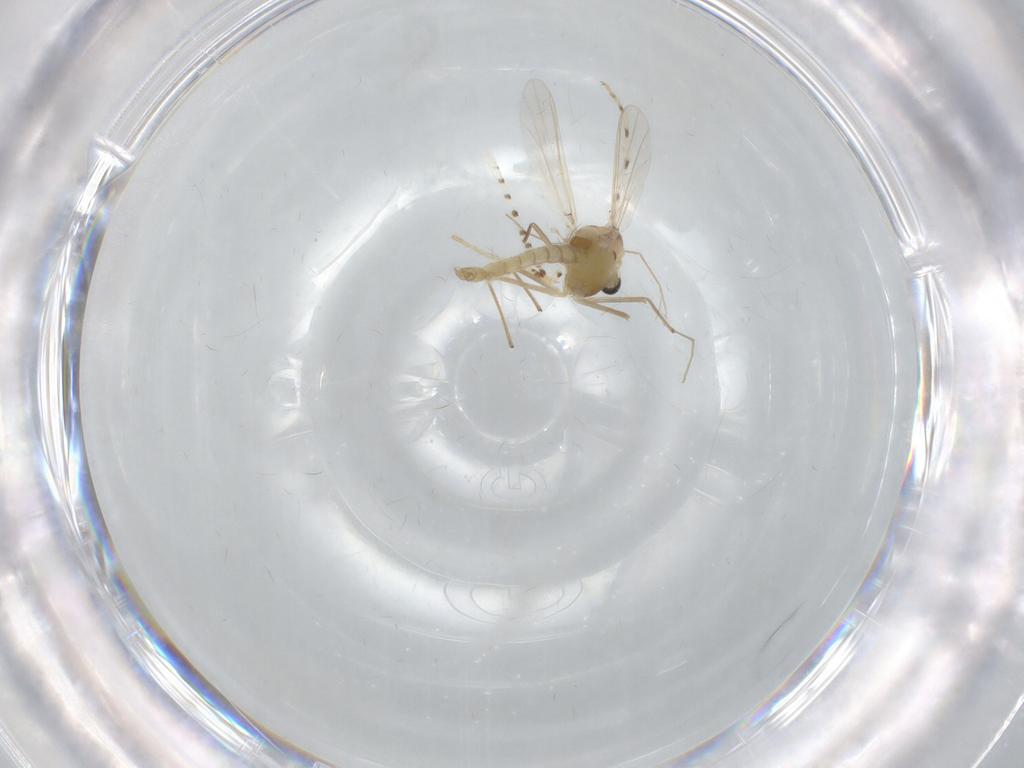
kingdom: Animalia
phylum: Arthropoda
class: Insecta
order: Diptera
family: Chironomidae
